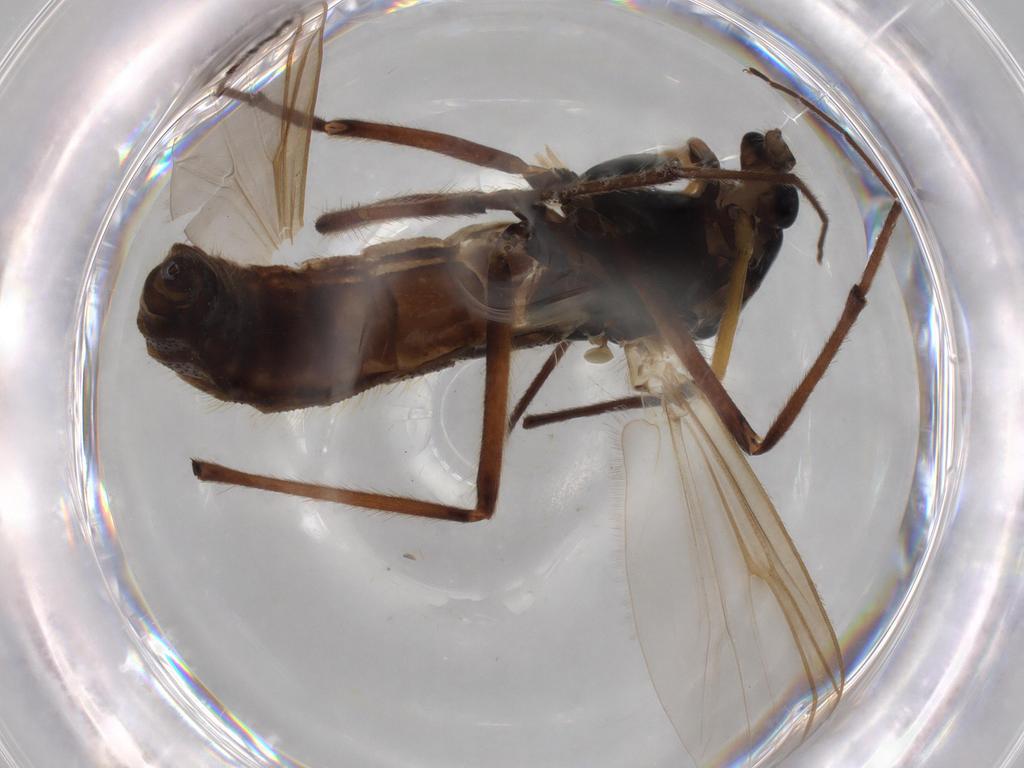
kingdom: Animalia
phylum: Arthropoda
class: Insecta
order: Diptera
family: Chironomidae
